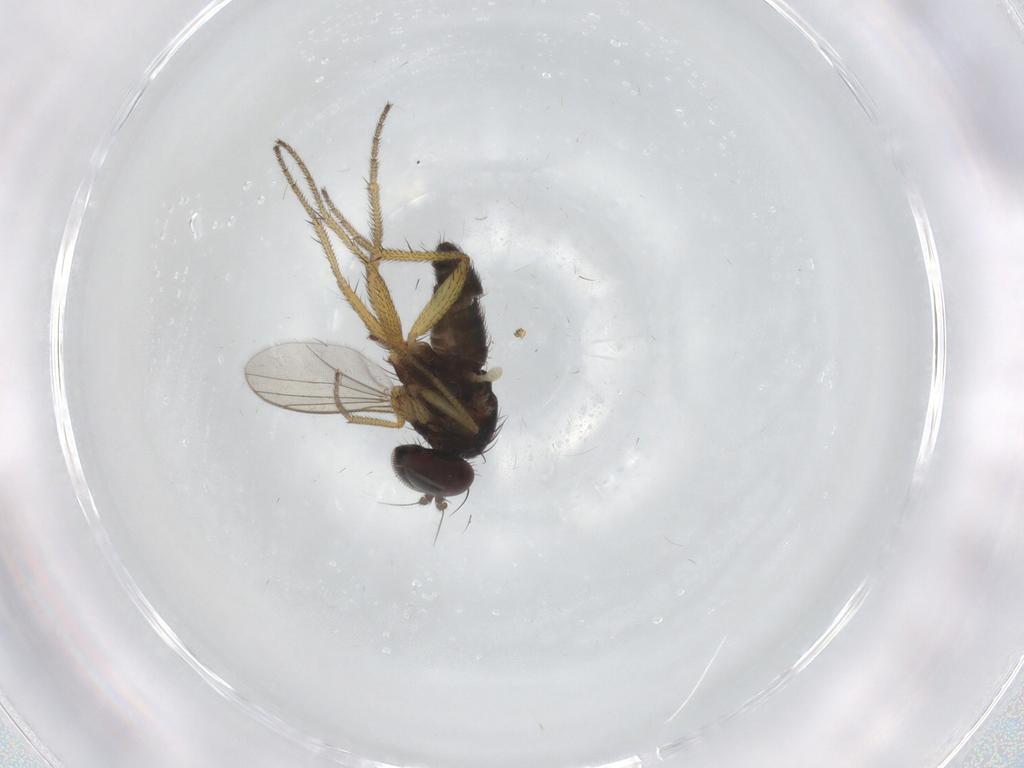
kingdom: Animalia
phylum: Arthropoda
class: Insecta
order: Diptera
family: Dolichopodidae
